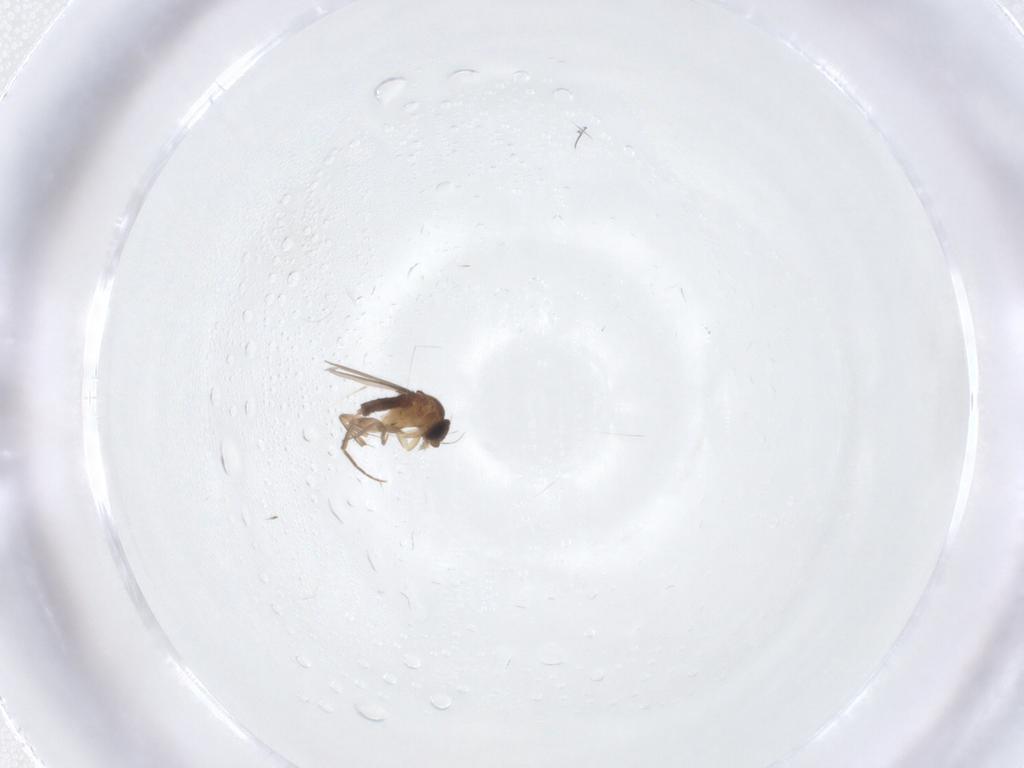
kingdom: Animalia
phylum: Arthropoda
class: Insecta
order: Diptera
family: Phoridae
